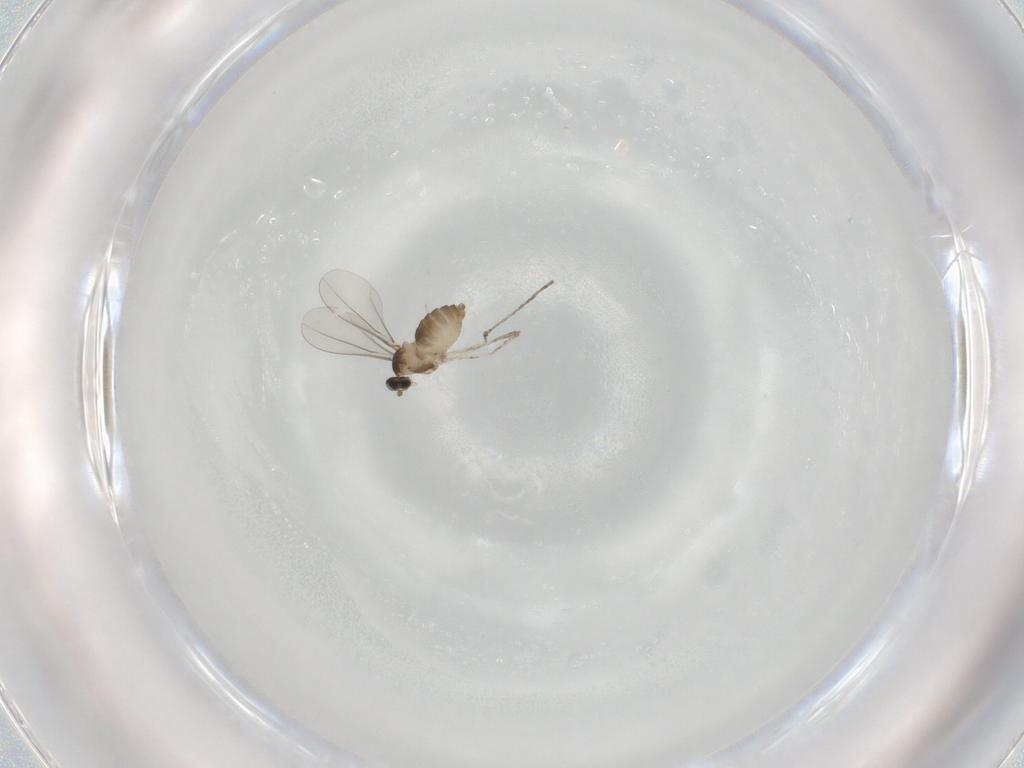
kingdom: Animalia
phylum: Arthropoda
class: Insecta
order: Diptera
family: Cecidomyiidae
